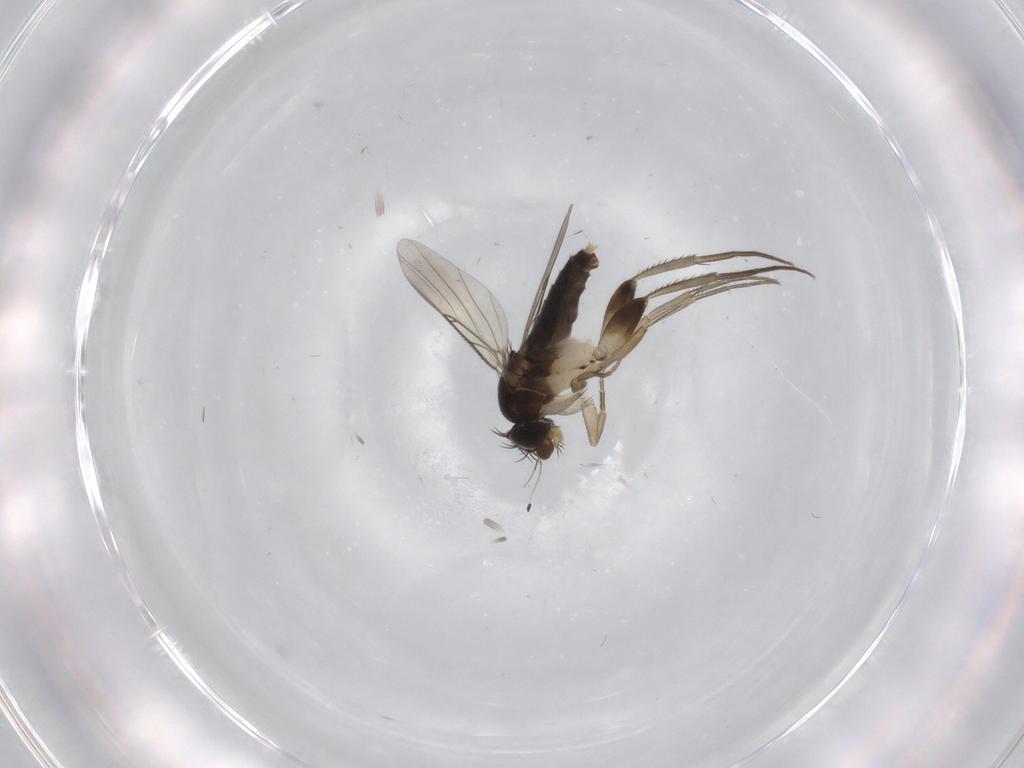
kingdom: Animalia
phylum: Arthropoda
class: Insecta
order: Diptera
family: Phoridae
